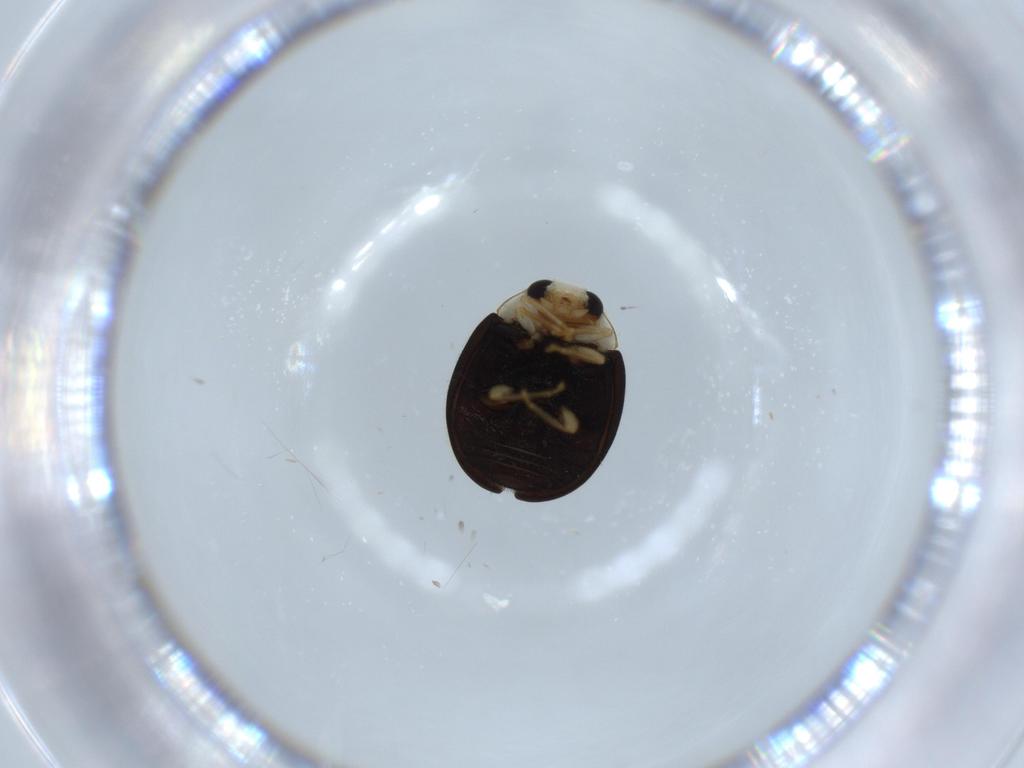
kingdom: Animalia
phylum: Arthropoda
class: Insecta
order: Coleoptera
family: Coccinellidae
